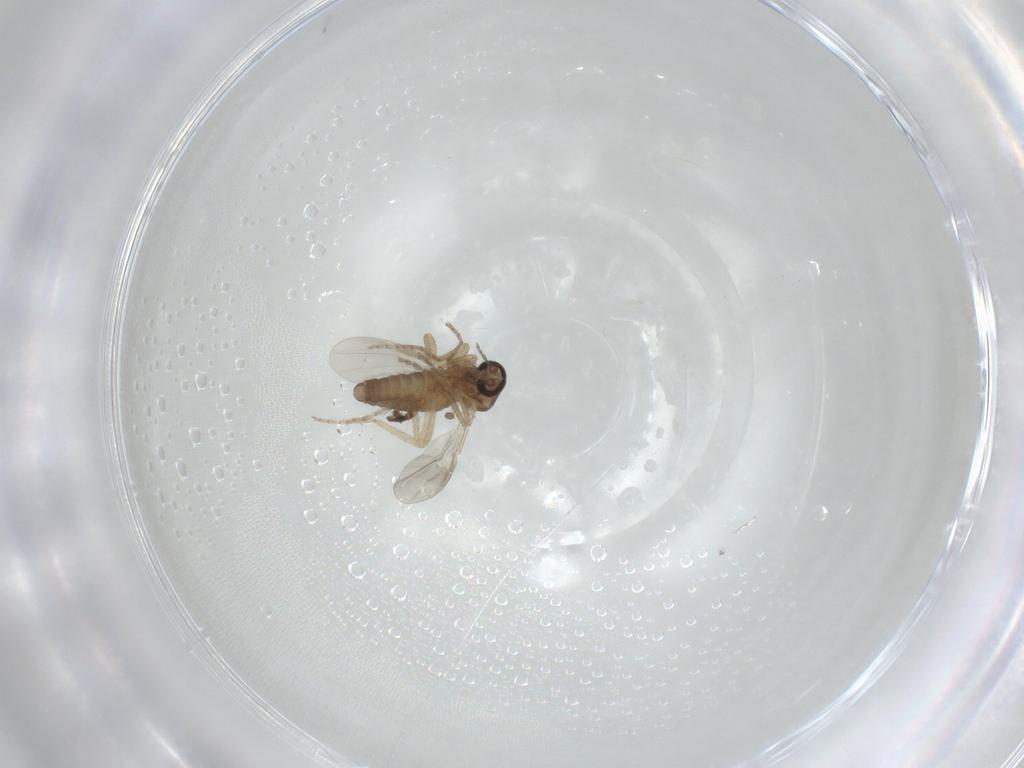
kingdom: Animalia
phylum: Arthropoda
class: Insecta
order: Diptera
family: Ceratopogonidae
